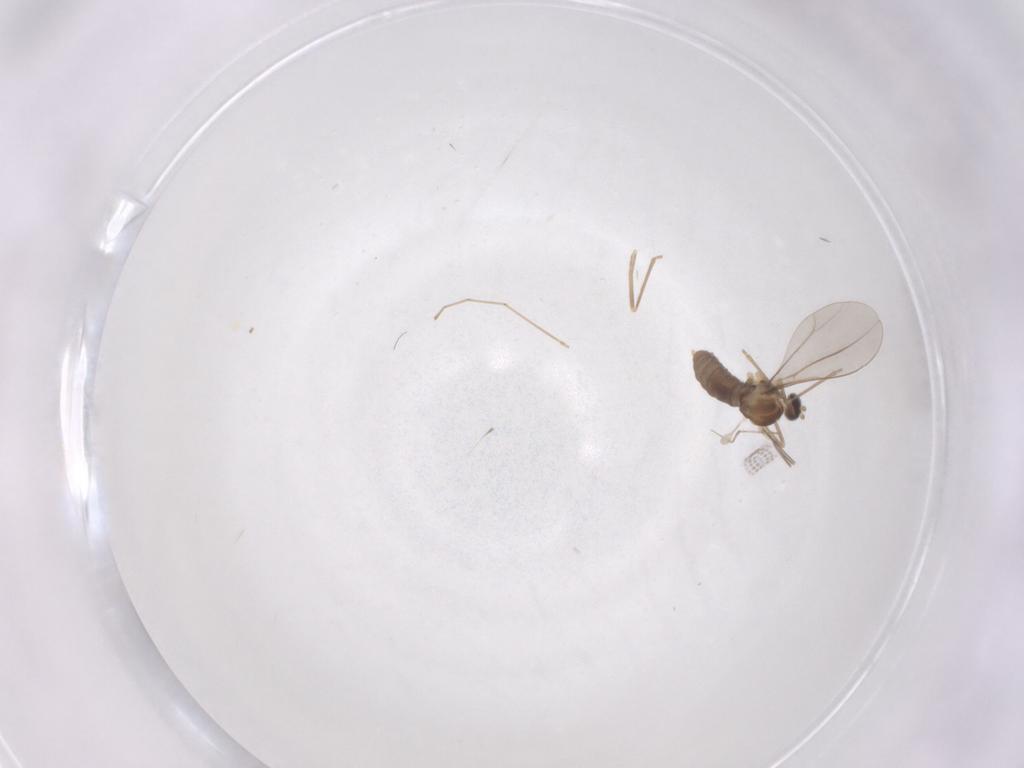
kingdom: Animalia
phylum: Arthropoda
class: Insecta
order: Diptera
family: Cecidomyiidae
